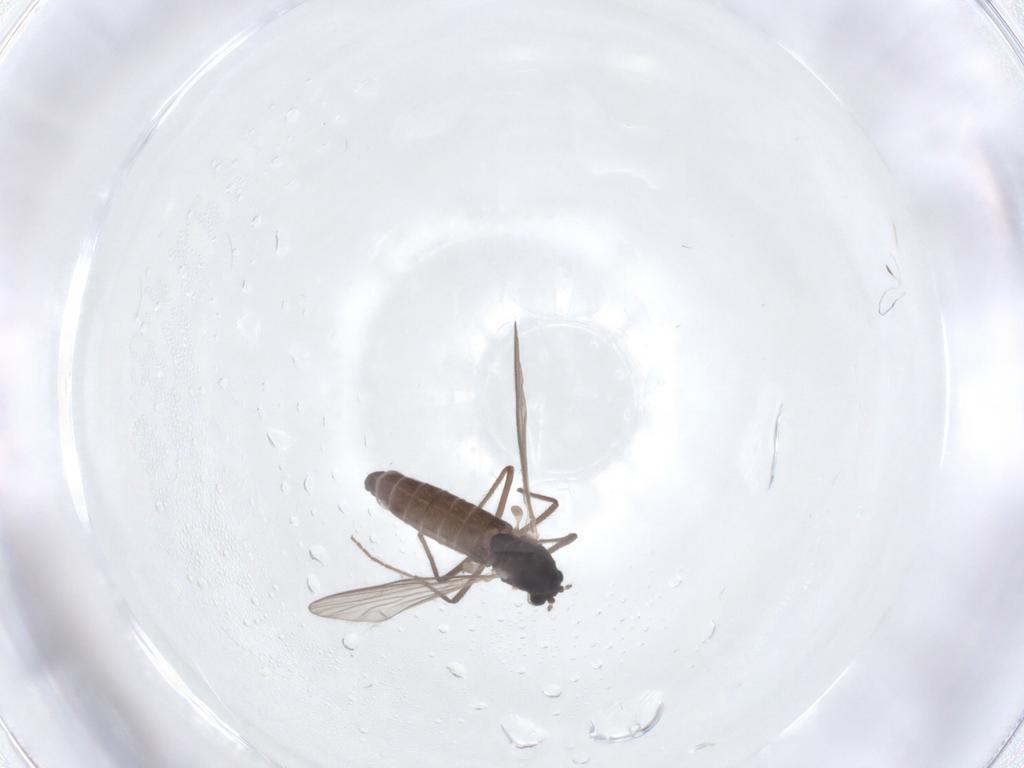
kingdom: Animalia
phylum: Arthropoda
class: Insecta
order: Diptera
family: Chironomidae
